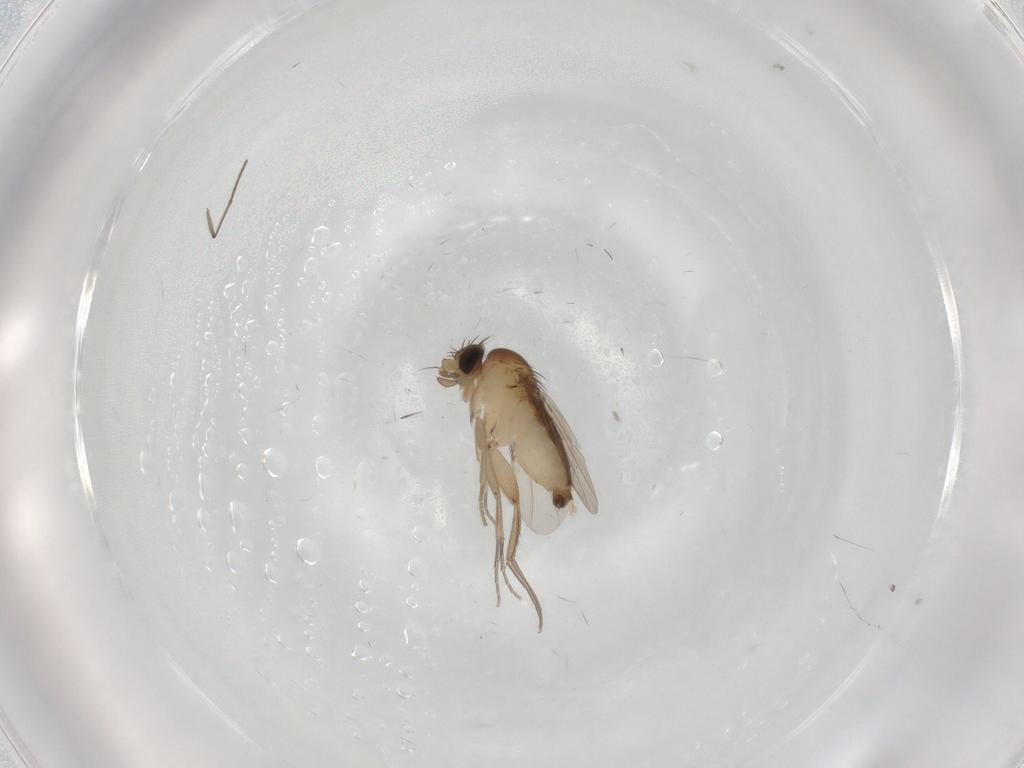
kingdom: Animalia
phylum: Arthropoda
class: Insecta
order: Diptera
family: Phoridae
